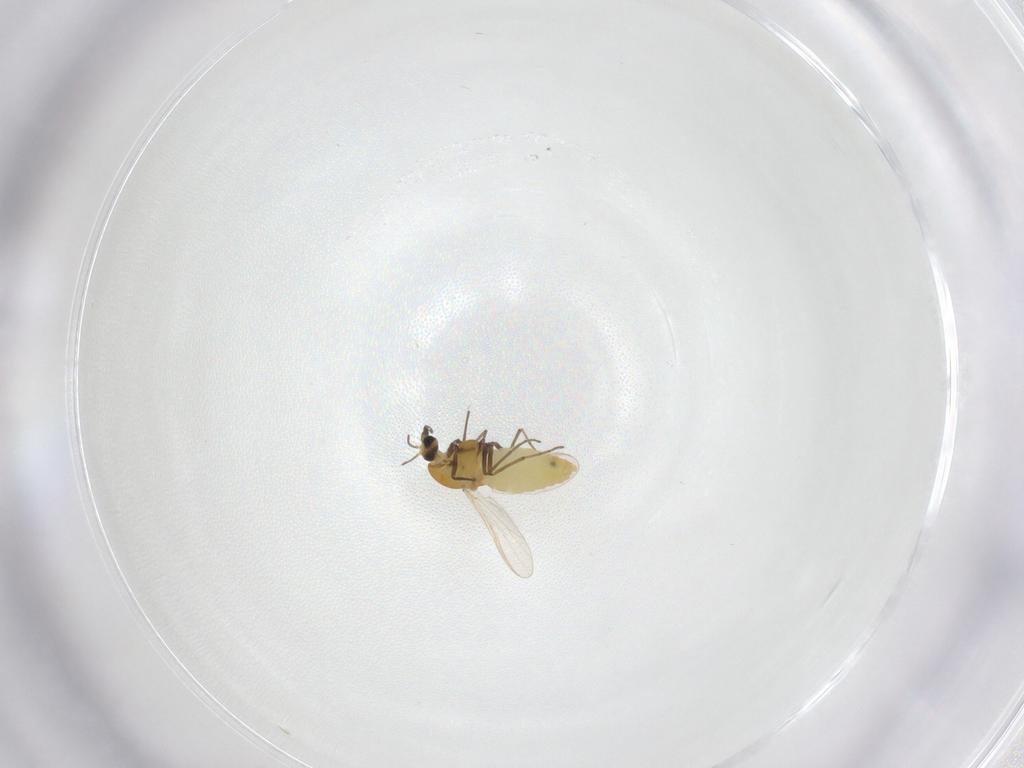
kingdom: Animalia
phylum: Arthropoda
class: Insecta
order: Diptera
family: Chironomidae
